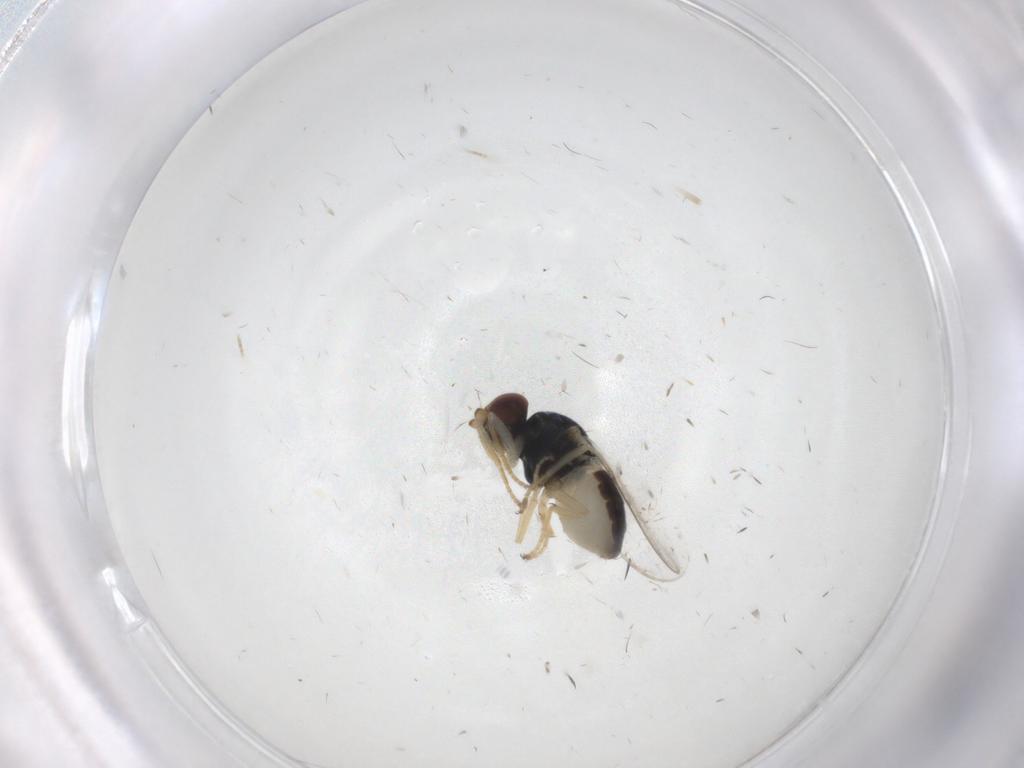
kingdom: Animalia
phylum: Arthropoda
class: Insecta
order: Diptera
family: Chloropidae
